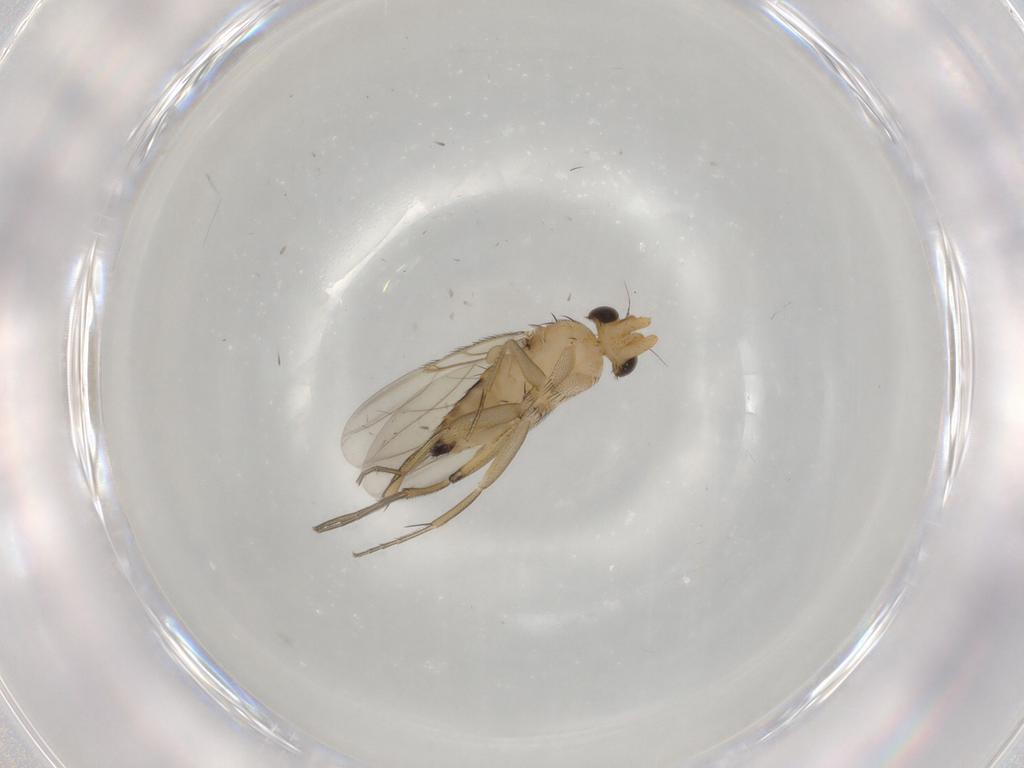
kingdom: Animalia
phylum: Arthropoda
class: Insecta
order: Diptera
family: Phoridae
